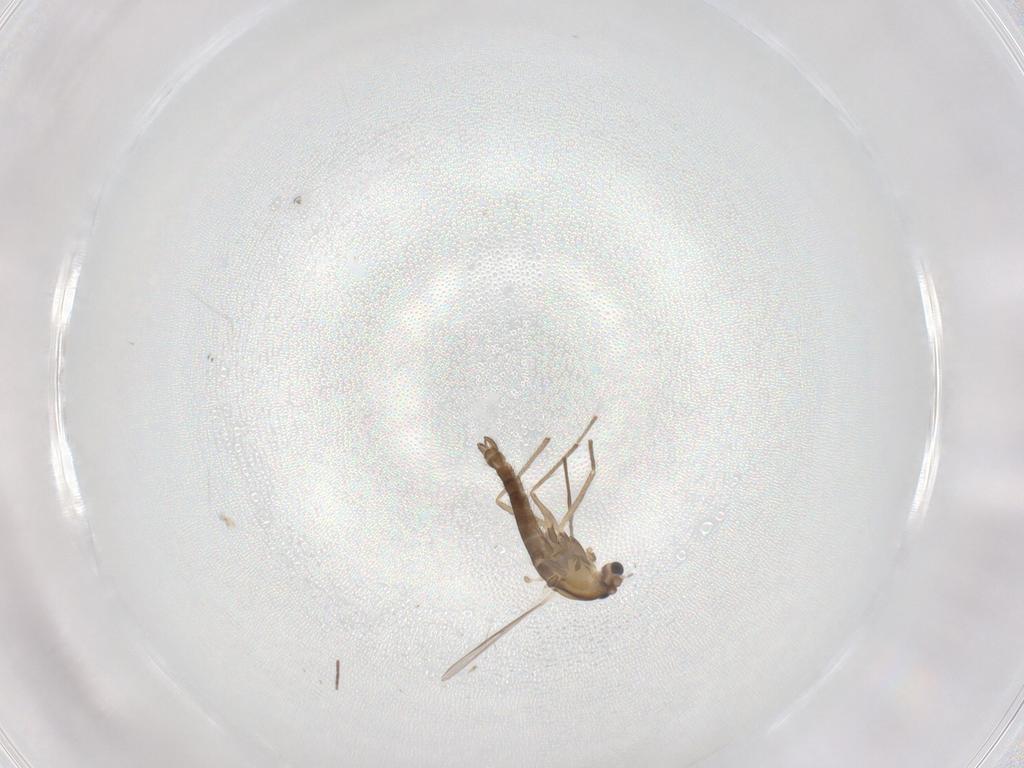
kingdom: Animalia
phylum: Arthropoda
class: Insecta
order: Diptera
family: Chironomidae
